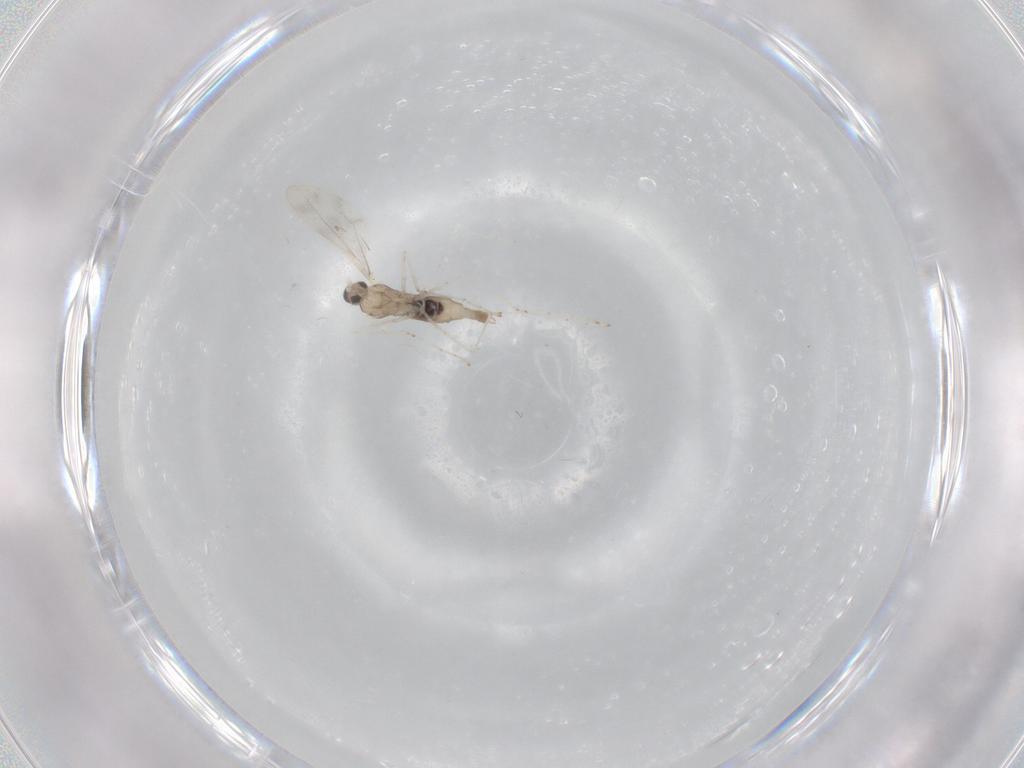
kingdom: Animalia
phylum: Arthropoda
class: Insecta
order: Diptera
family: Cecidomyiidae
